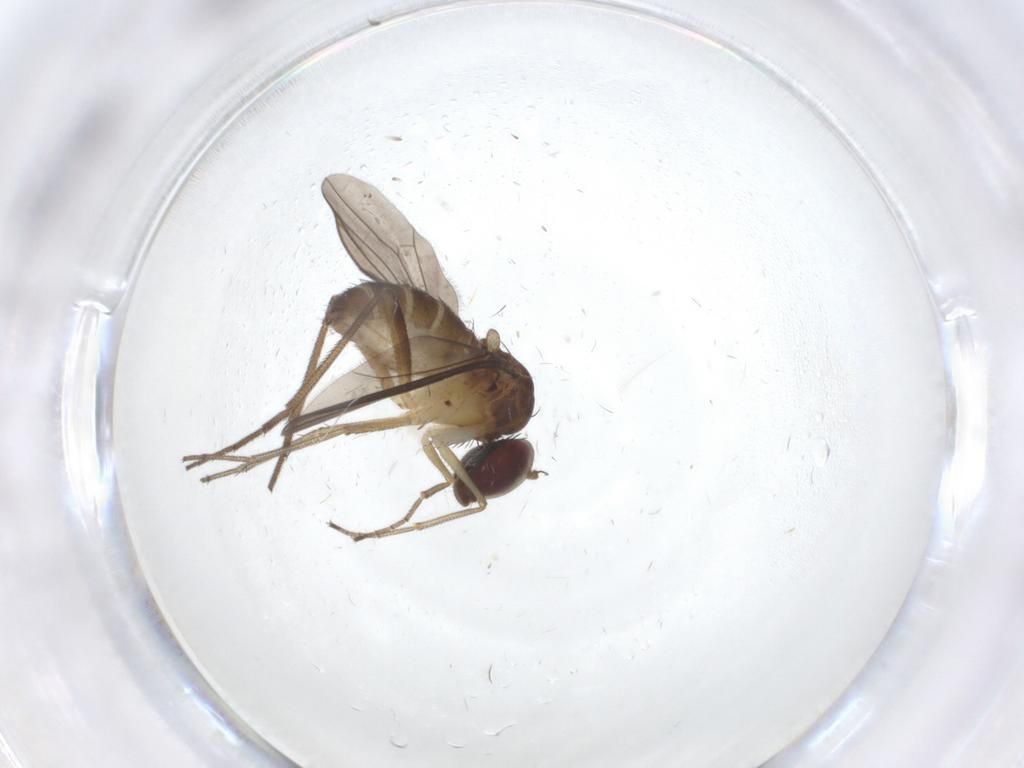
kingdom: Animalia
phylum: Arthropoda
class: Insecta
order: Diptera
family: Dolichopodidae
